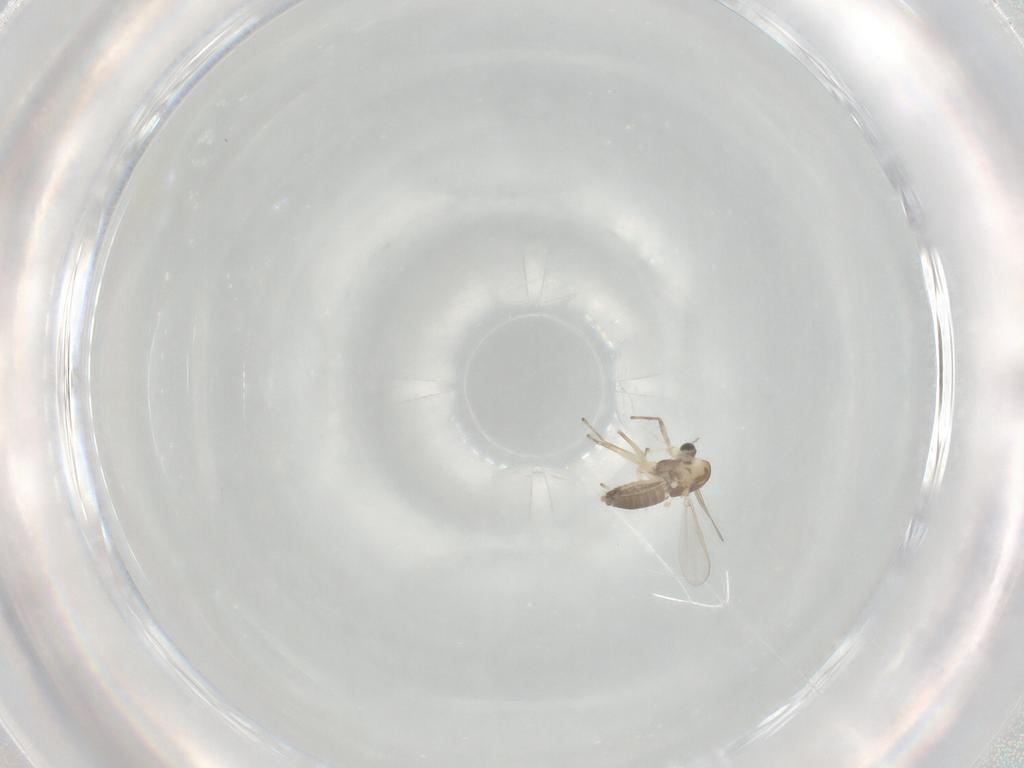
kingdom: Animalia
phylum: Arthropoda
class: Insecta
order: Diptera
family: Chironomidae
